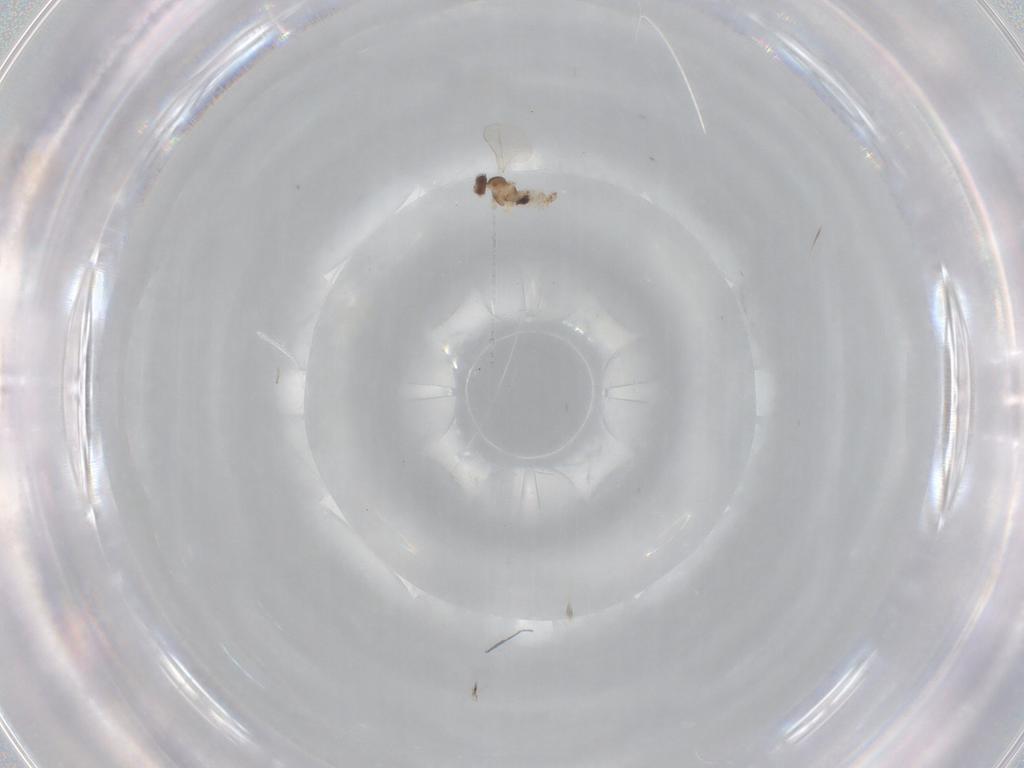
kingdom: Animalia
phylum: Arthropoda
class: Insecta
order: Diptera
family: Cecidomyiidae
